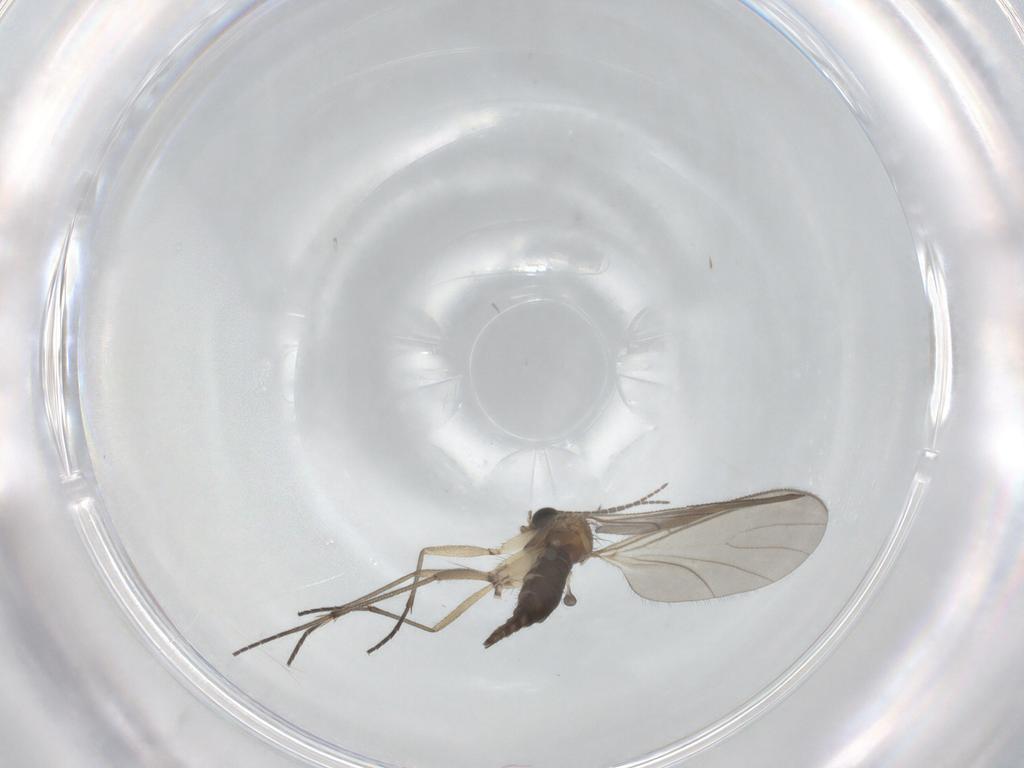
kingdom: Animalia
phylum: Arthropoda
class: Insecta
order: Diptera
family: Sciaridae
